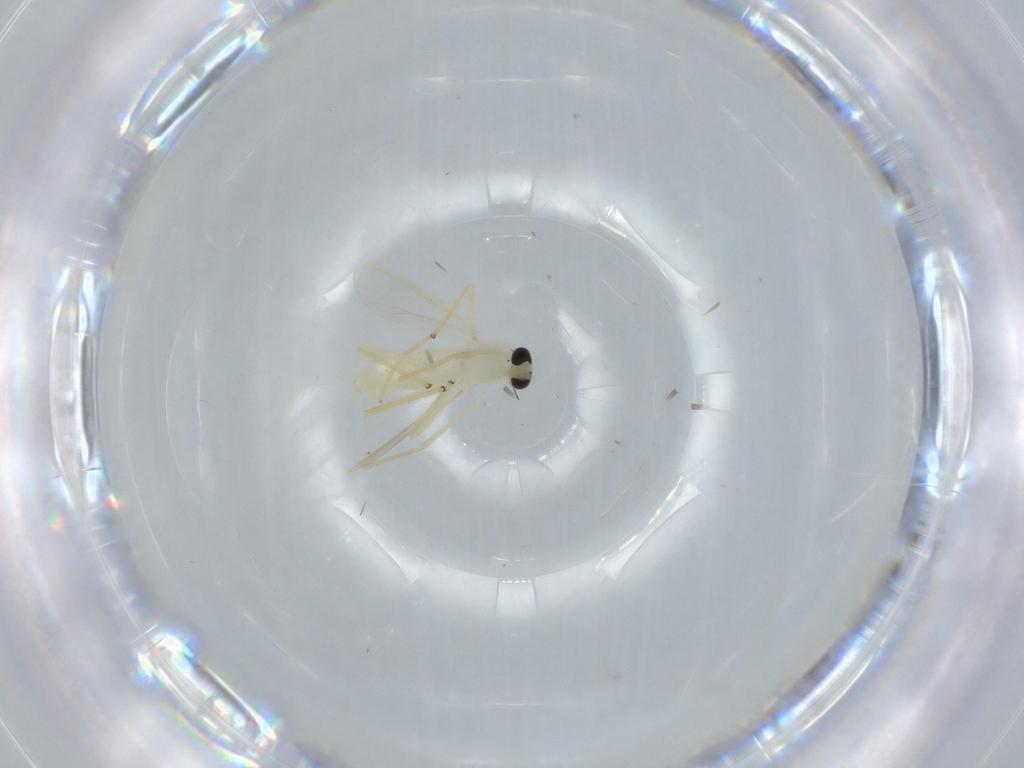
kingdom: Animalia
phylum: Arthropoda
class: Insecta
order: Diptera
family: Chironomidae
